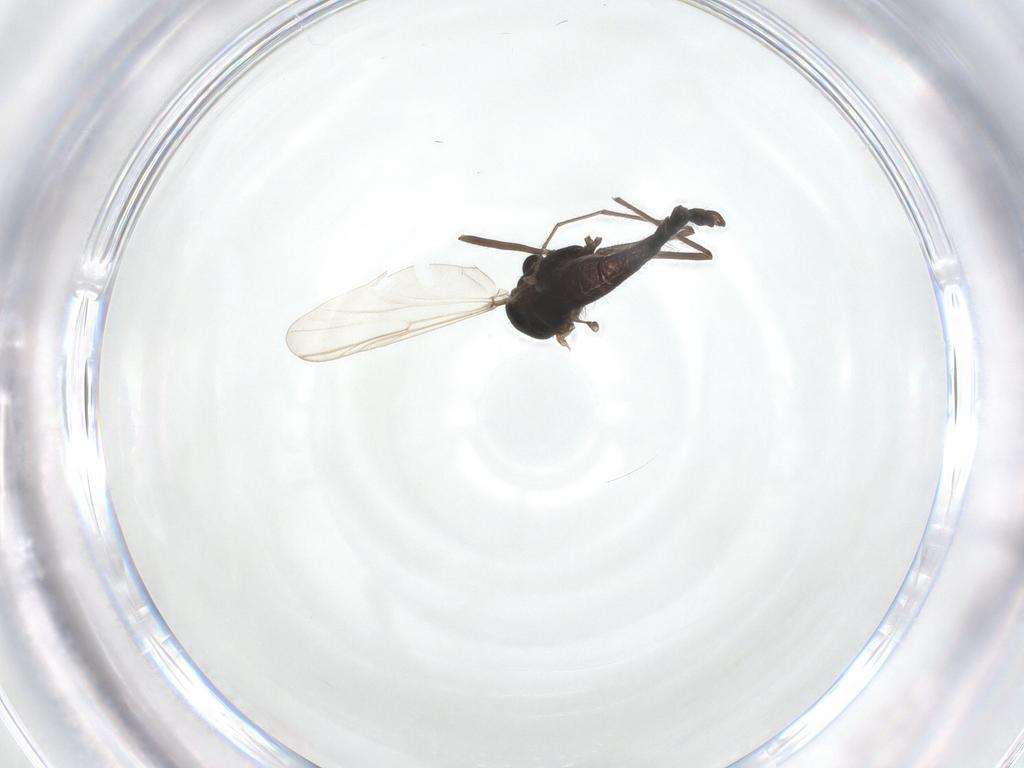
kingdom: Animalia
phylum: Arthropoda
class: Insecta
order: Diptera
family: Chironomidae
